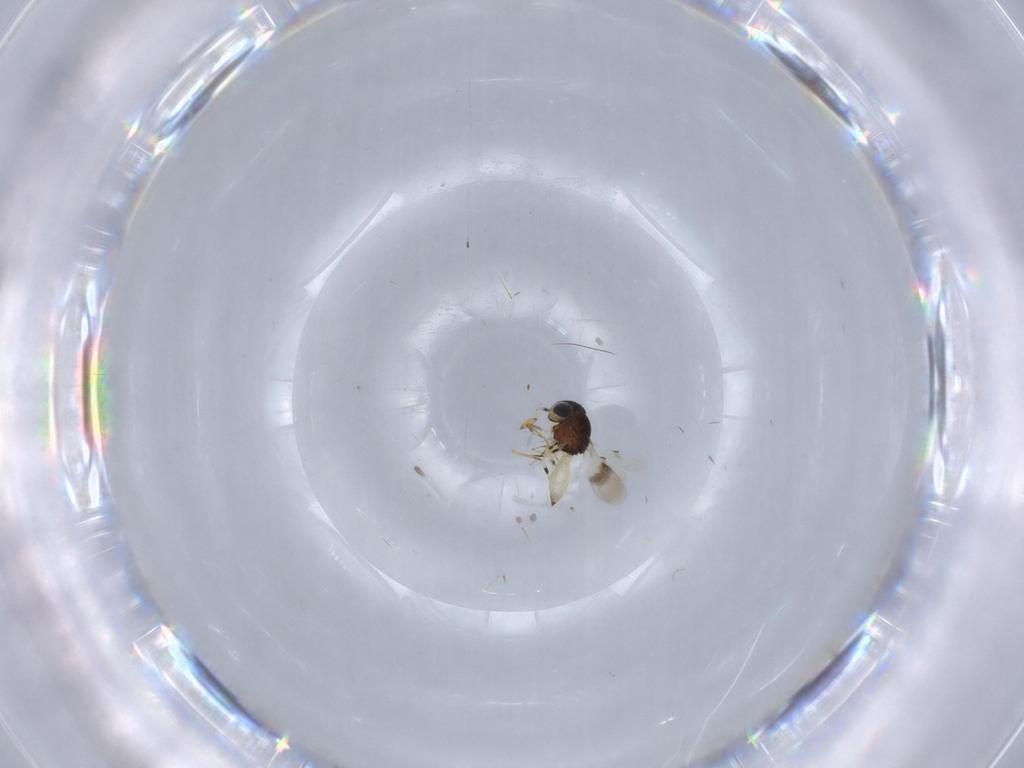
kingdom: Animalia
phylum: Arthropoda
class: Insecta
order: Hymenoptera
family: Scelionidae
